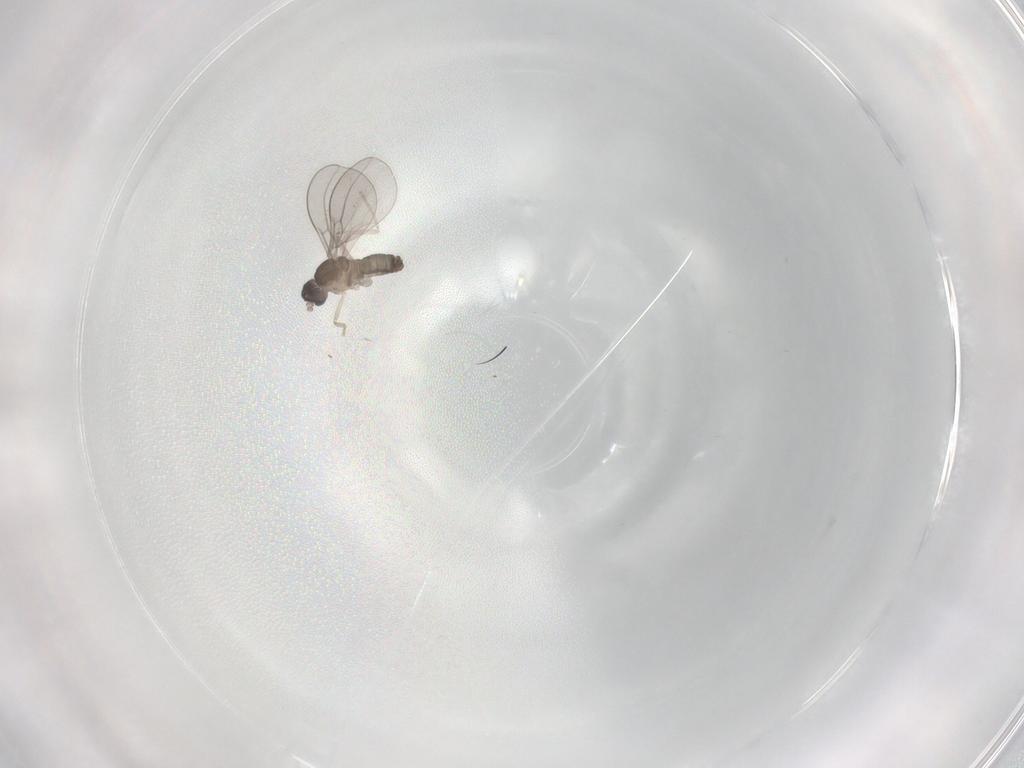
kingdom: Animalia
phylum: Arthropoda
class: Insecta
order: Diptera
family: Cecidomyiidae
